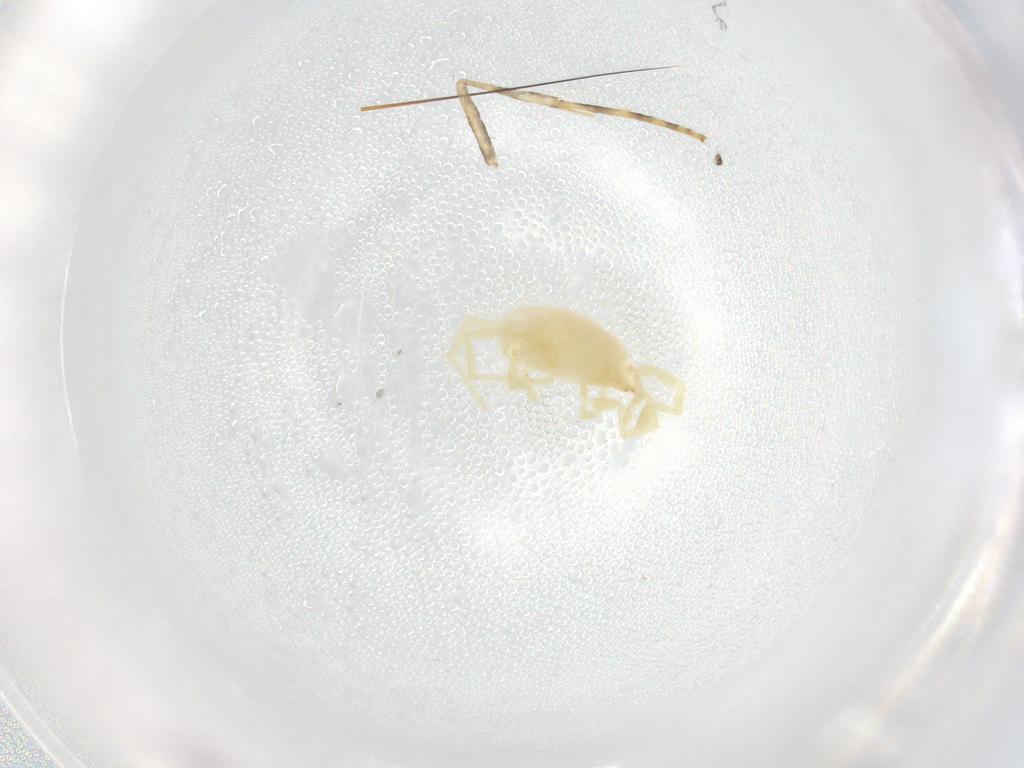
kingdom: Animalia
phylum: Arthropoda
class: Arachnida
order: Trombidiformes
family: Erythraeidae
